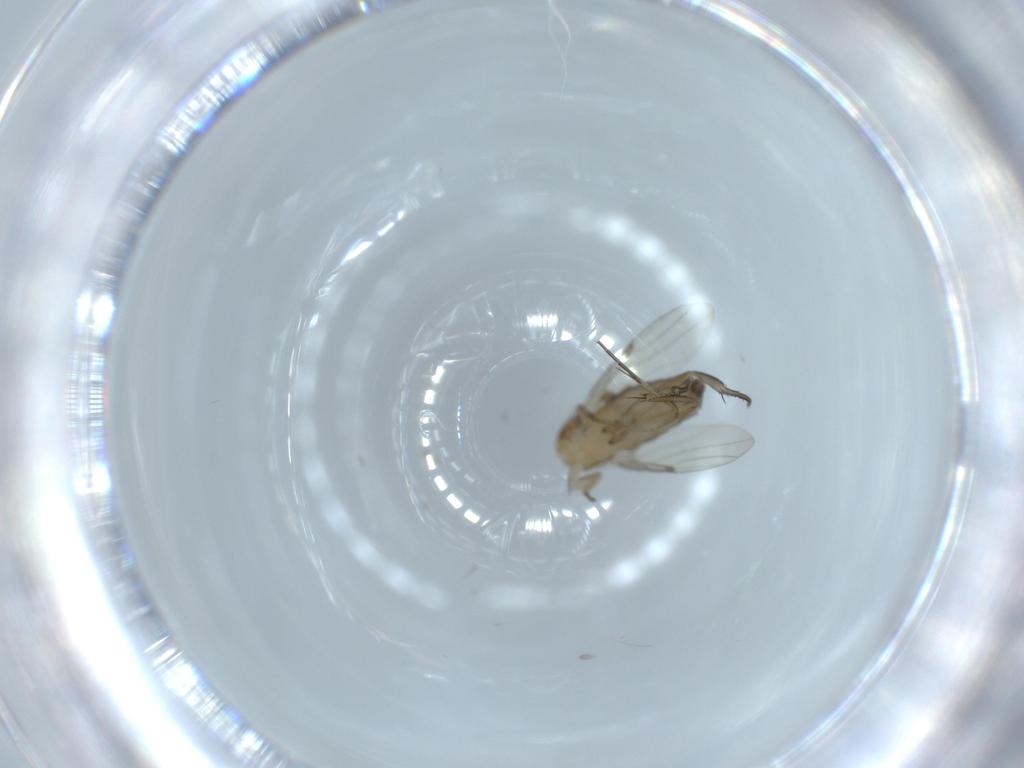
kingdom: Animalia
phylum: Arthropoda
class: Insecta
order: Diptera
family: Phoridae
